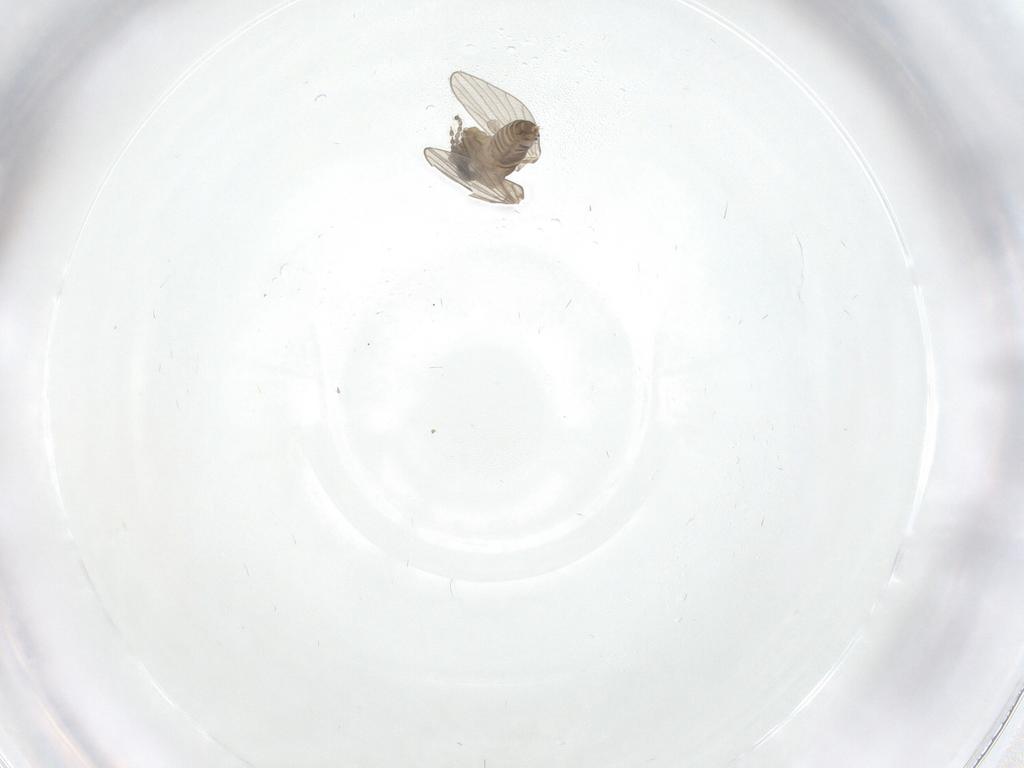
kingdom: Animalia
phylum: Arthropoda
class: Insecta
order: Diptera
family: Psychodidae
